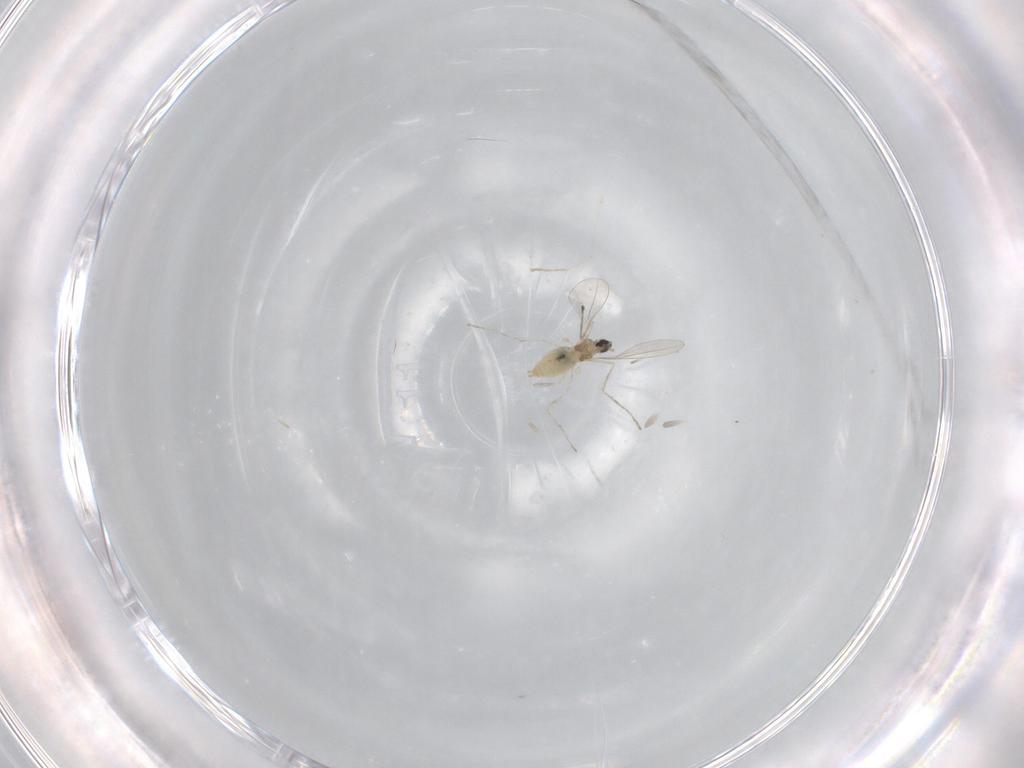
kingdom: Animalia
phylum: Arthropoda
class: Insecta
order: Diptera
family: Cecidomyiidae
